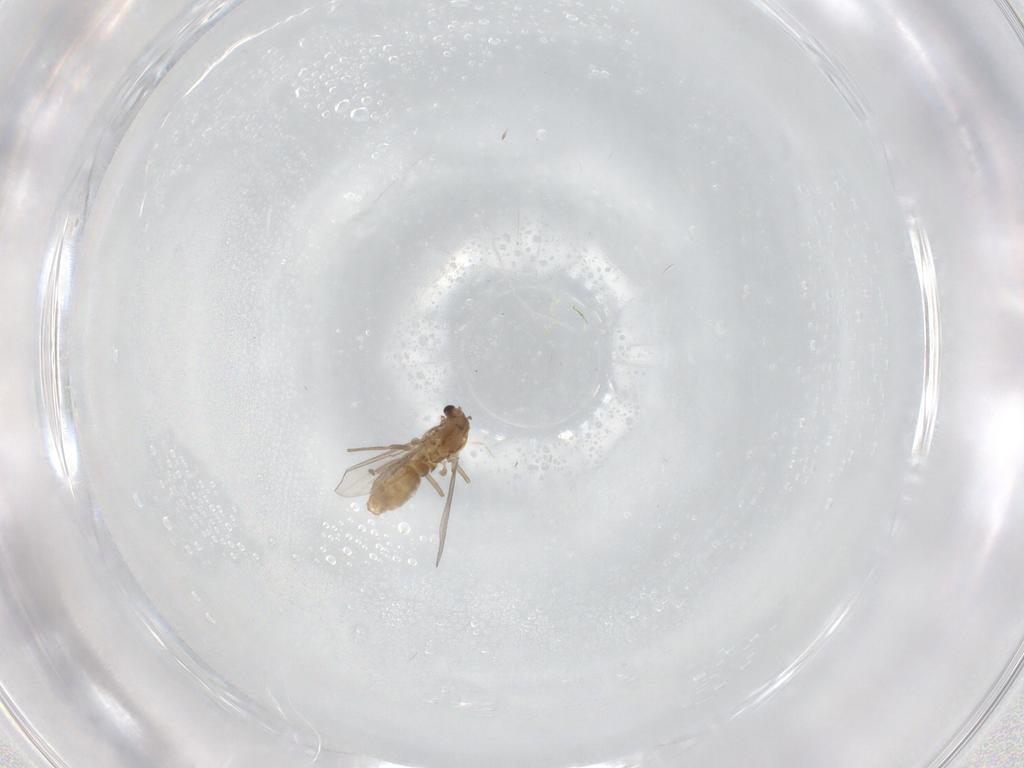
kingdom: Animalia
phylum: Arthropoda
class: Insecta
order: Diptera
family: Chironomidae
